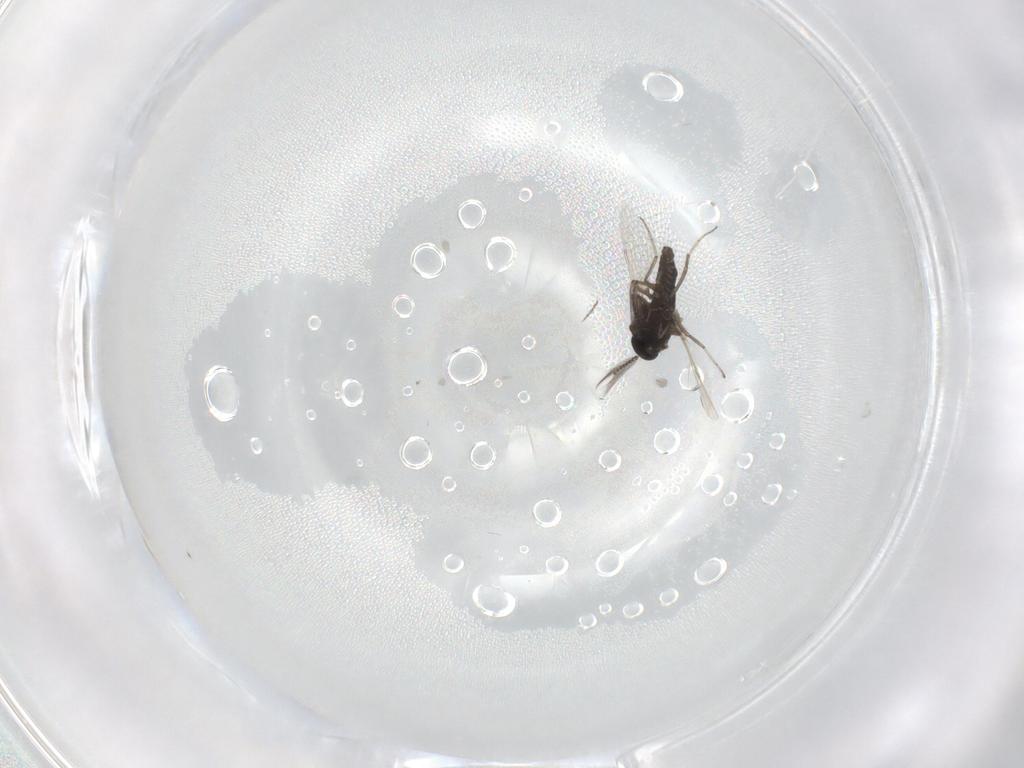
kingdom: Animalia
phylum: Arthropoda
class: Insecta
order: Diptera
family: Ceratopogonidae
